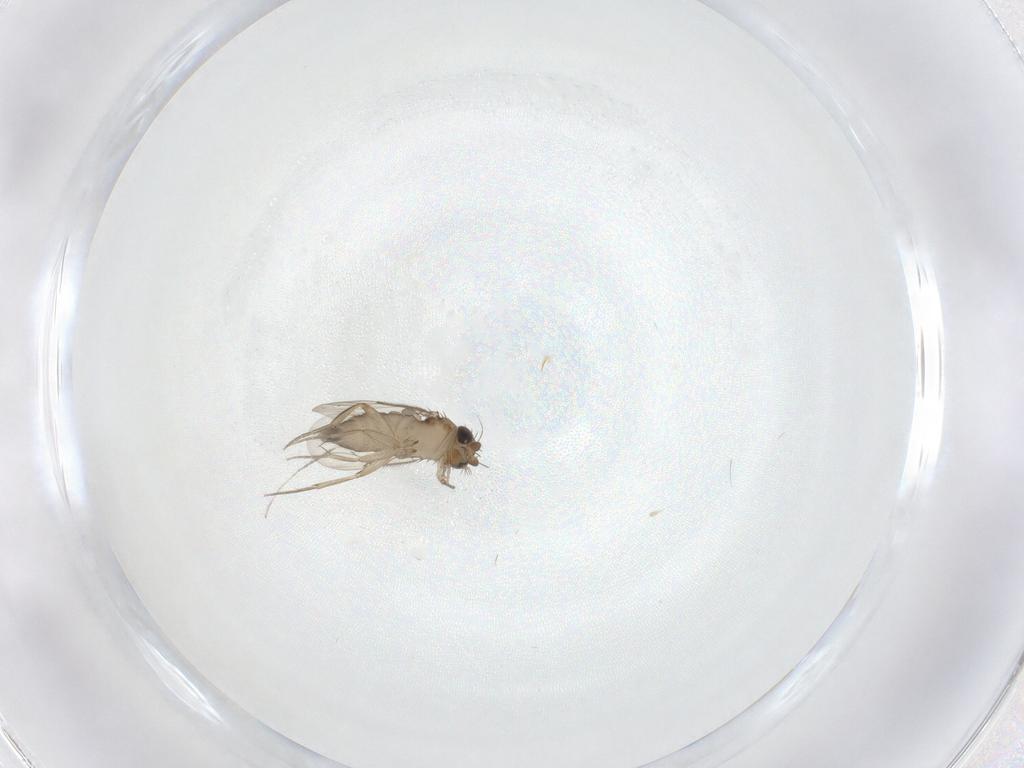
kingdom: Animalia
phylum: Arthropoda
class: Insecta
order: Diptera
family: Phoridae
